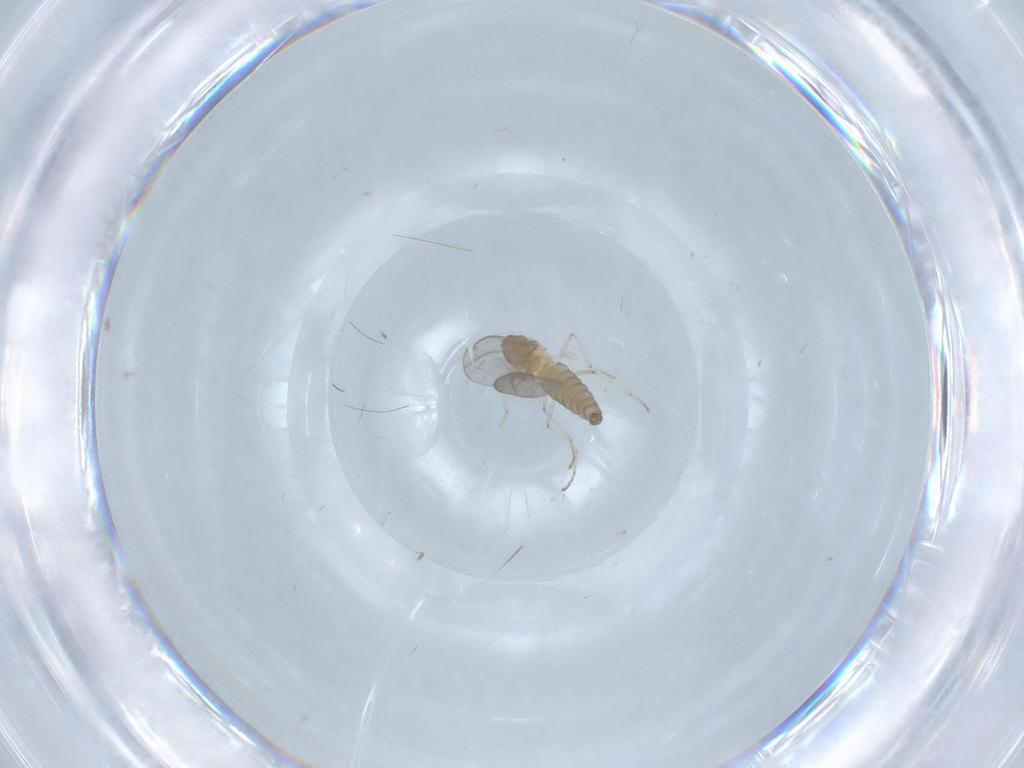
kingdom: Animalia
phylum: Arthropoda
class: Insecta
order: Diptera
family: Cecidomyiidae
